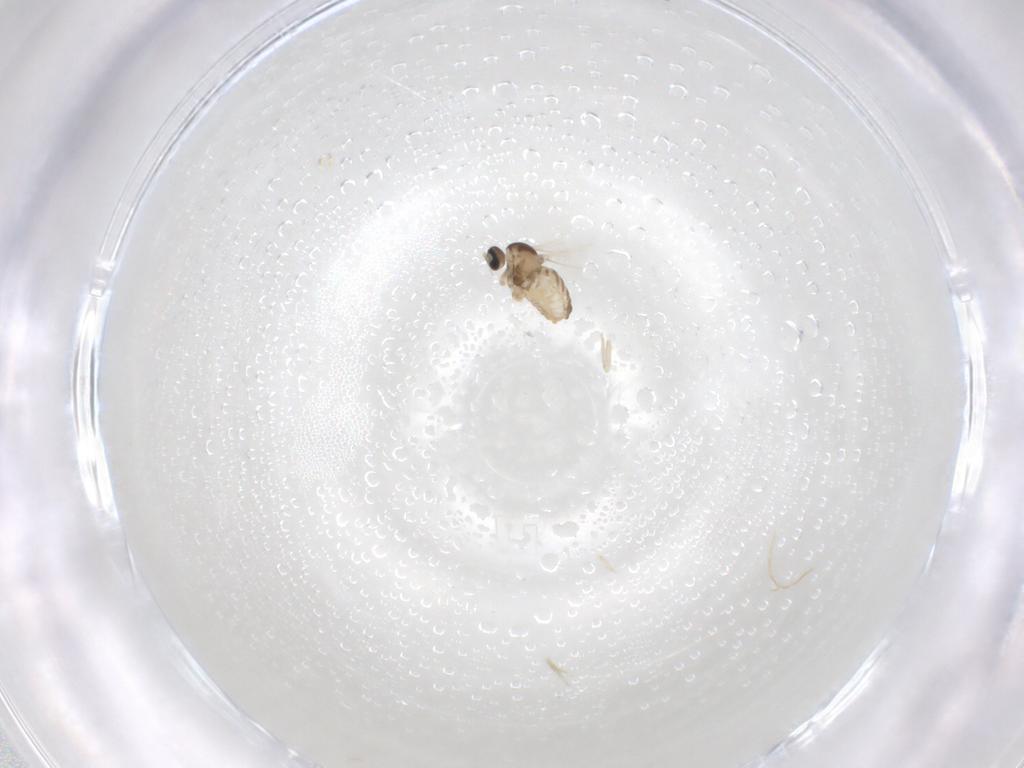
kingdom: Animalia
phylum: Arthropoda
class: Insecta
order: Diptera
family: Cecidomyiidae
